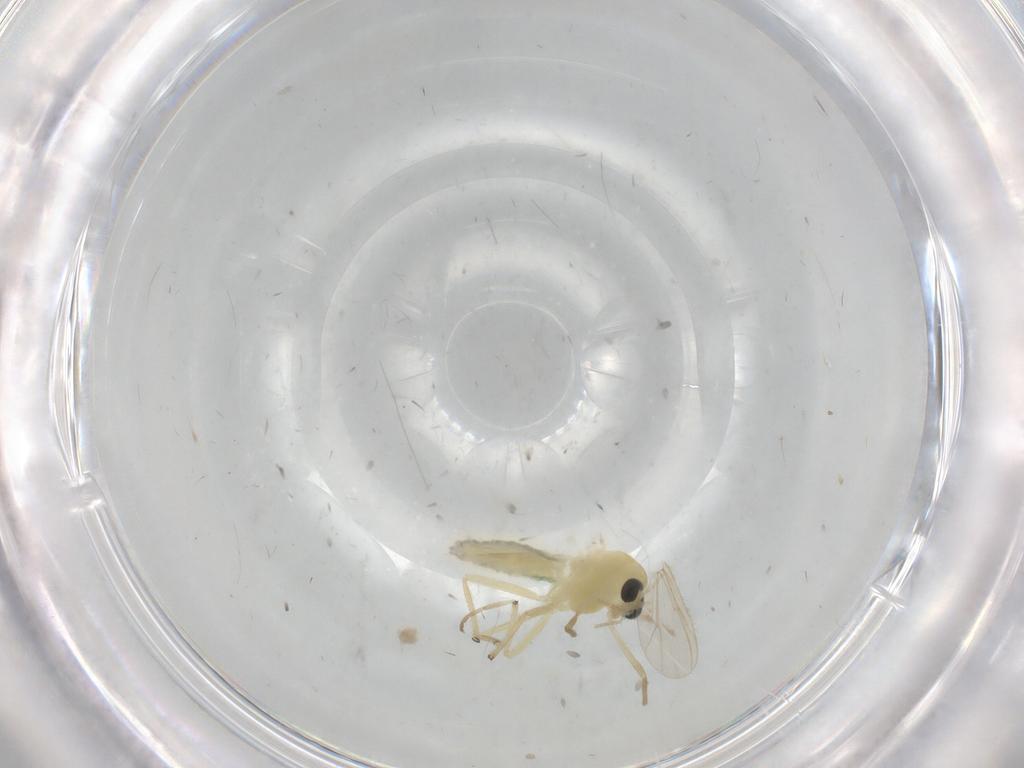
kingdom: Animalia
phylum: Arthropoda
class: Insecta
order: Diptera
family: Chironomidae
